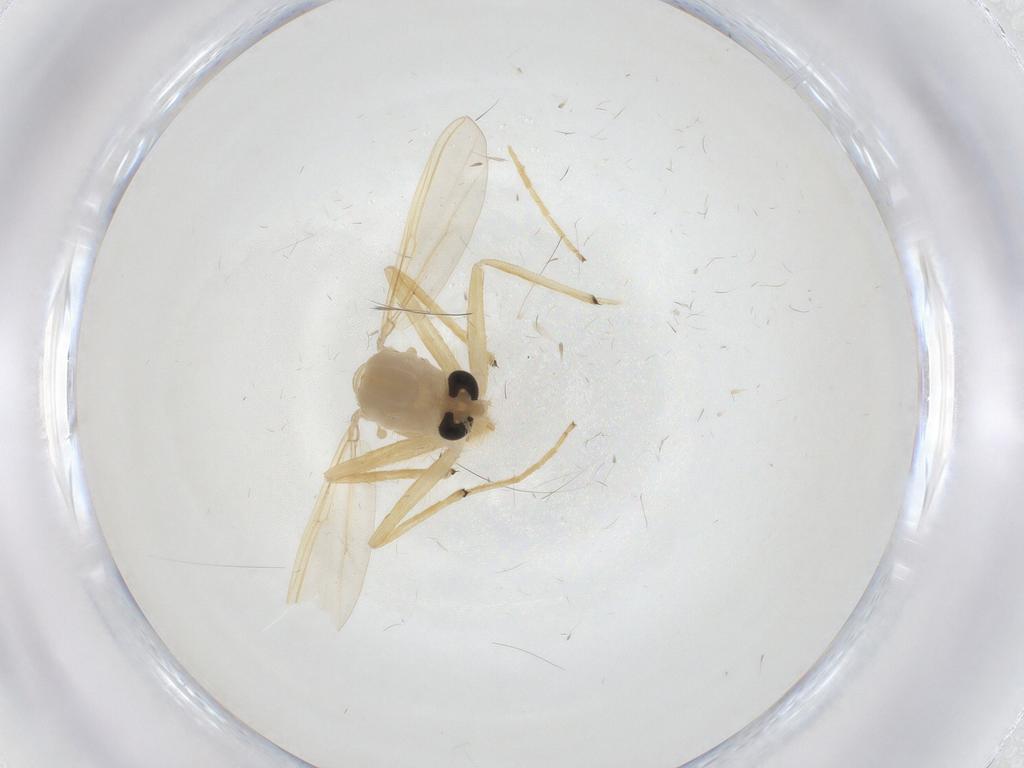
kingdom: Animalia
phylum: Arthropoda
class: Insecta
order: Diptera
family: Chironomidae
